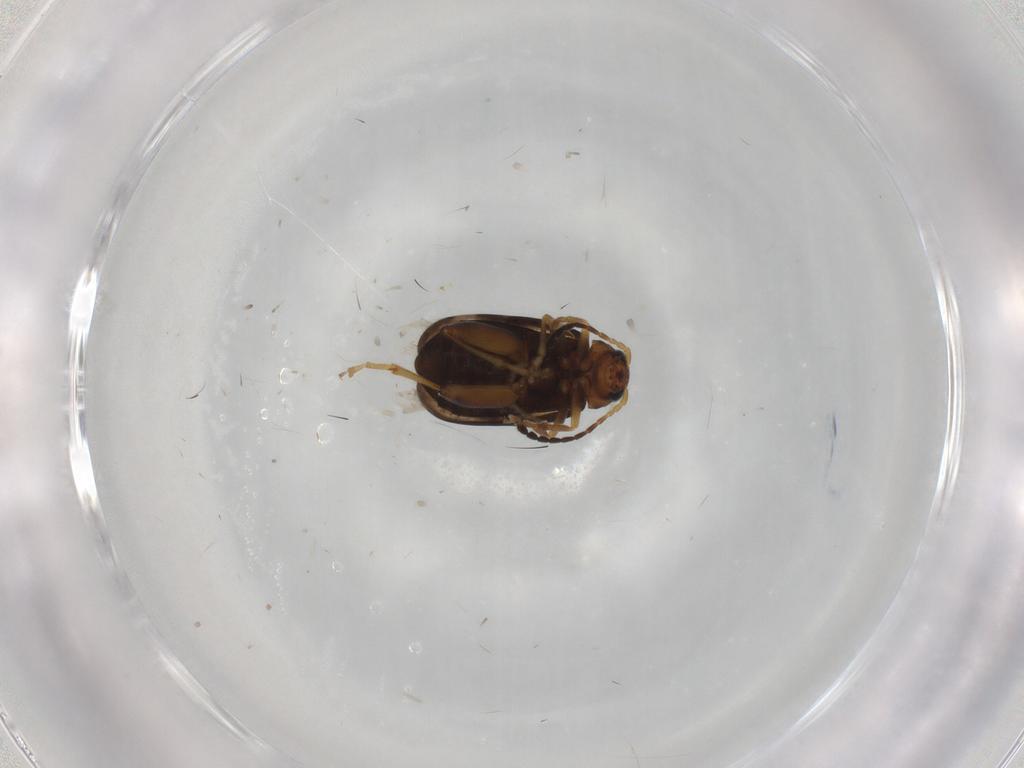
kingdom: Animalia
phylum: Arthropoda
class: Insecta
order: Coleoptera
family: Chrysomelidae
